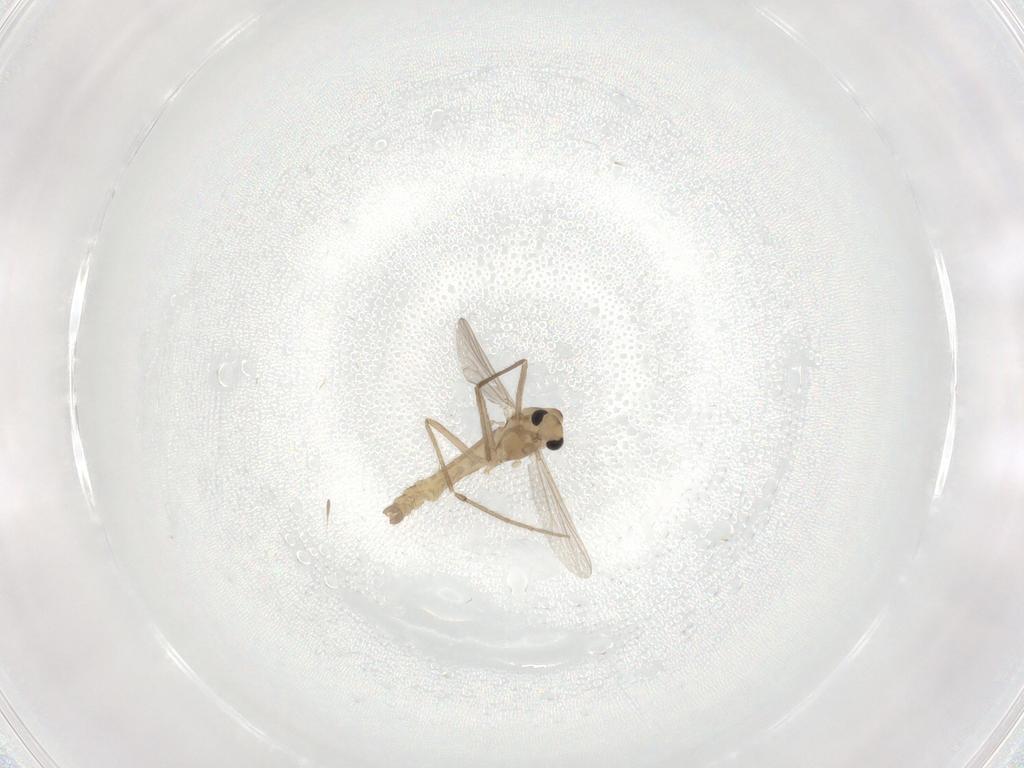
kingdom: Animalia
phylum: Arthropoda
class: Insecta
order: Diptera
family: Chironomidae
